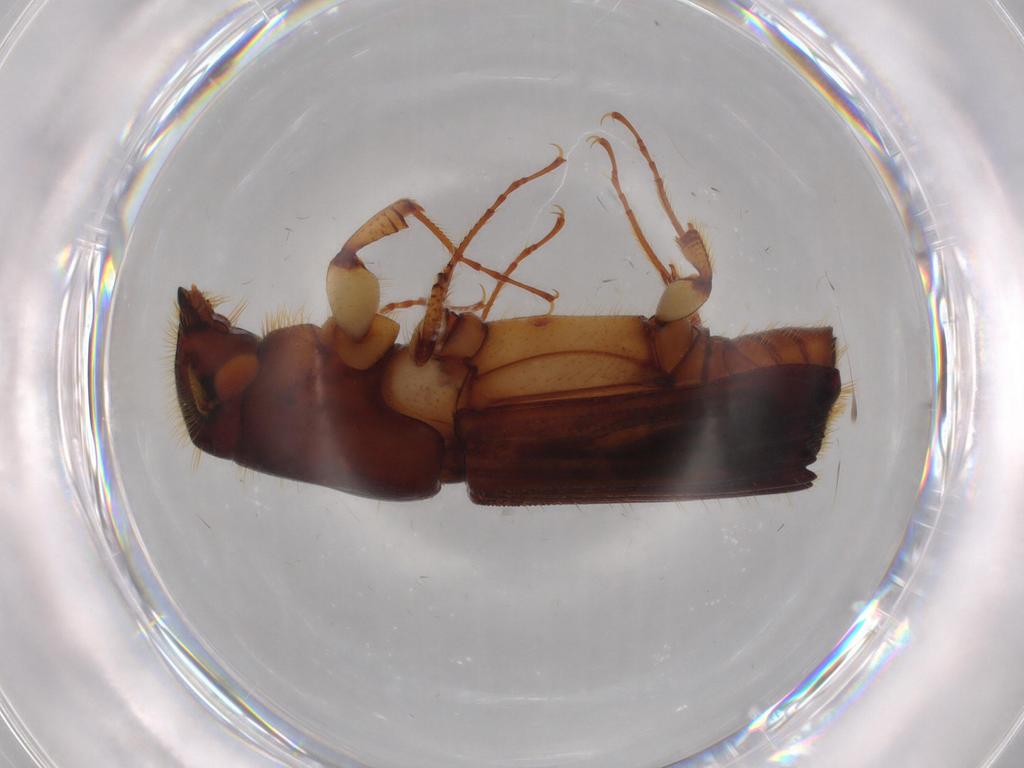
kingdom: Animalia
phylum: Arthropoda
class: Insecta
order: Coleoptera
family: Curculionidae
